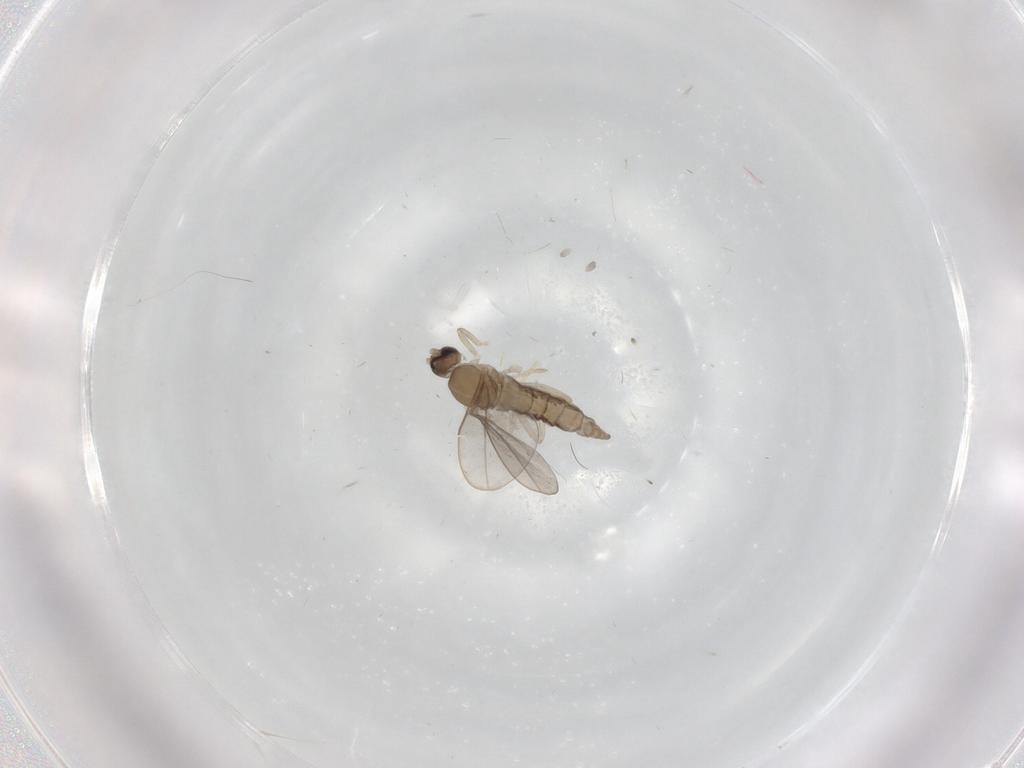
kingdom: Animalia
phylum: Arthropoda
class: Insecta
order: Diptera
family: Cecidomyiidae
